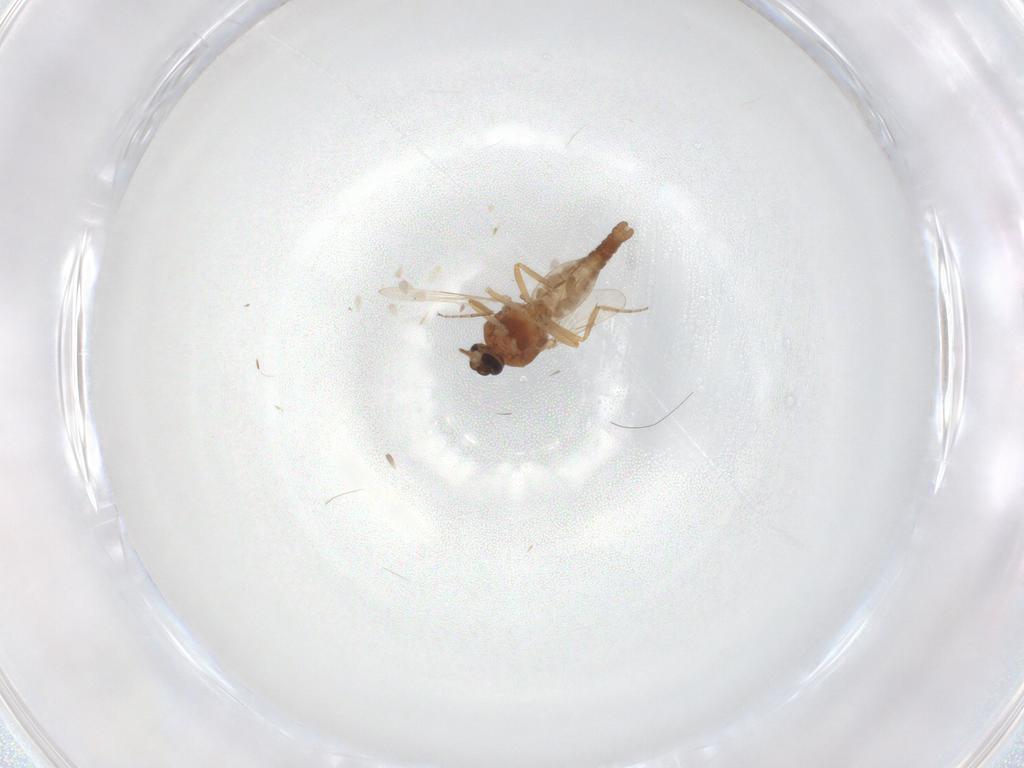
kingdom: Animalia
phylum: Arthropoda
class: Insecta
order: Diptera
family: Ceratopogonidae
